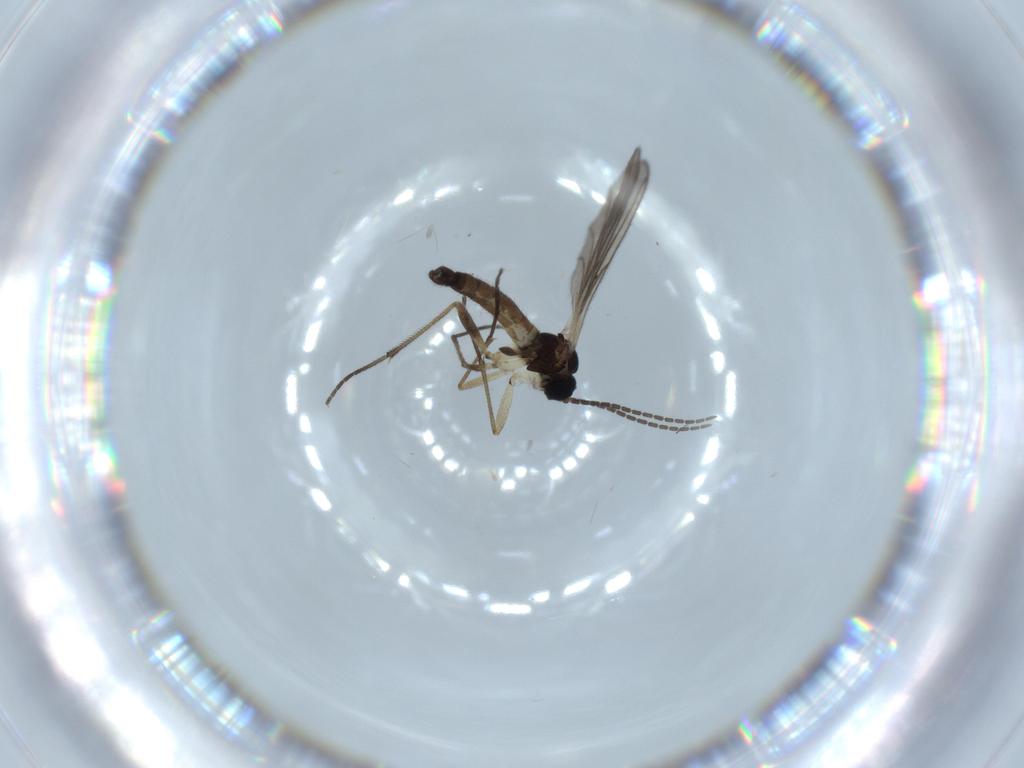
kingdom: Animalia
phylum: Arthropoda
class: Insecta
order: Diptera
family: Sciaridae
